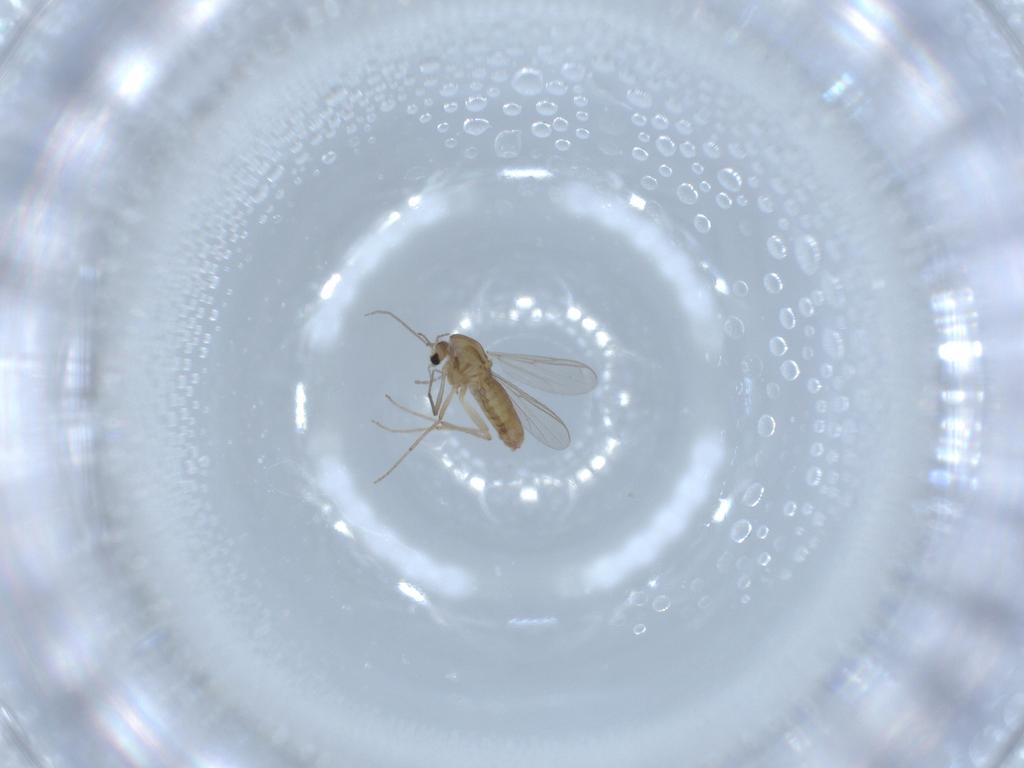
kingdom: Animalia
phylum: Arthropoda
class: Insecta
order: Diptera
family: Chironomidae
